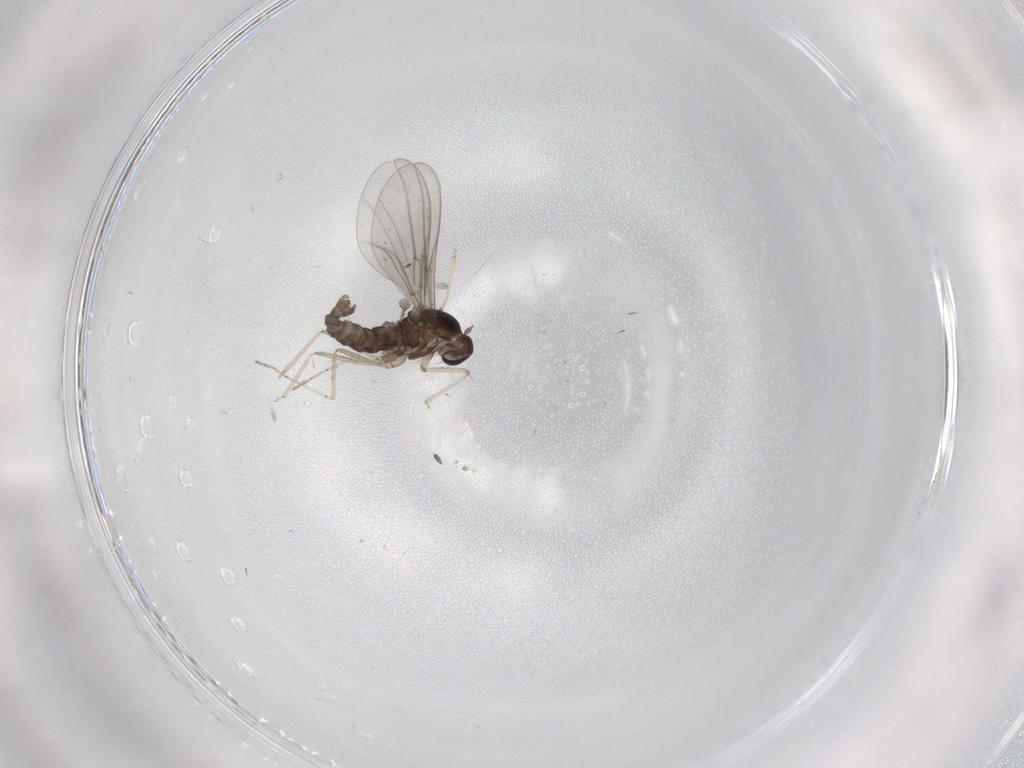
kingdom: Animalia
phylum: Arthropoda
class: Insecta
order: Diptera
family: Cecidomyiidae
